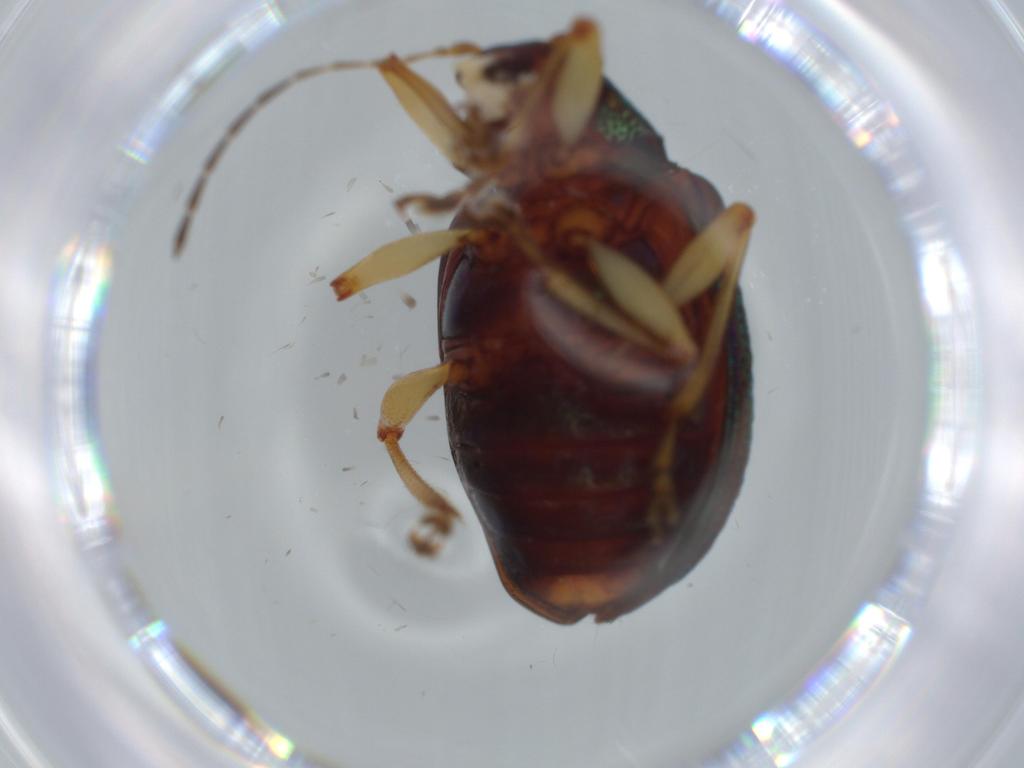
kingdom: Animalia
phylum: Arthropoda
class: Insecta
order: Coleoptera
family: Chrysomelidae
